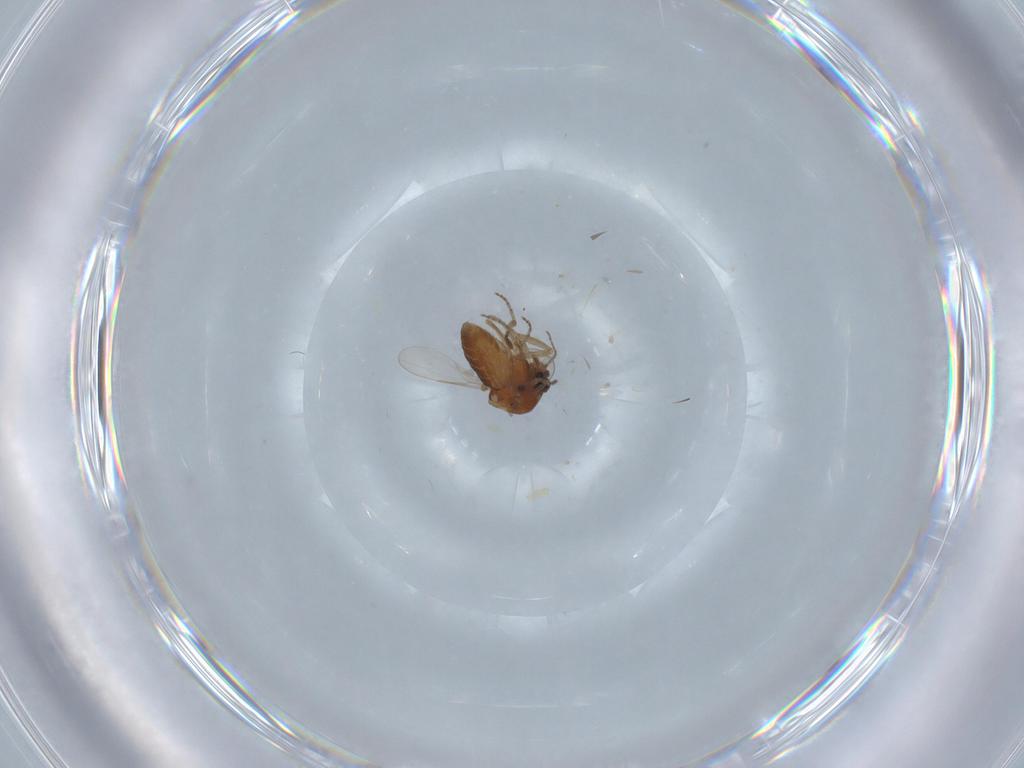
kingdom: Animalia
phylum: Arthropoda
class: Insecta
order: Diptera
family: Ceratopogonidae
